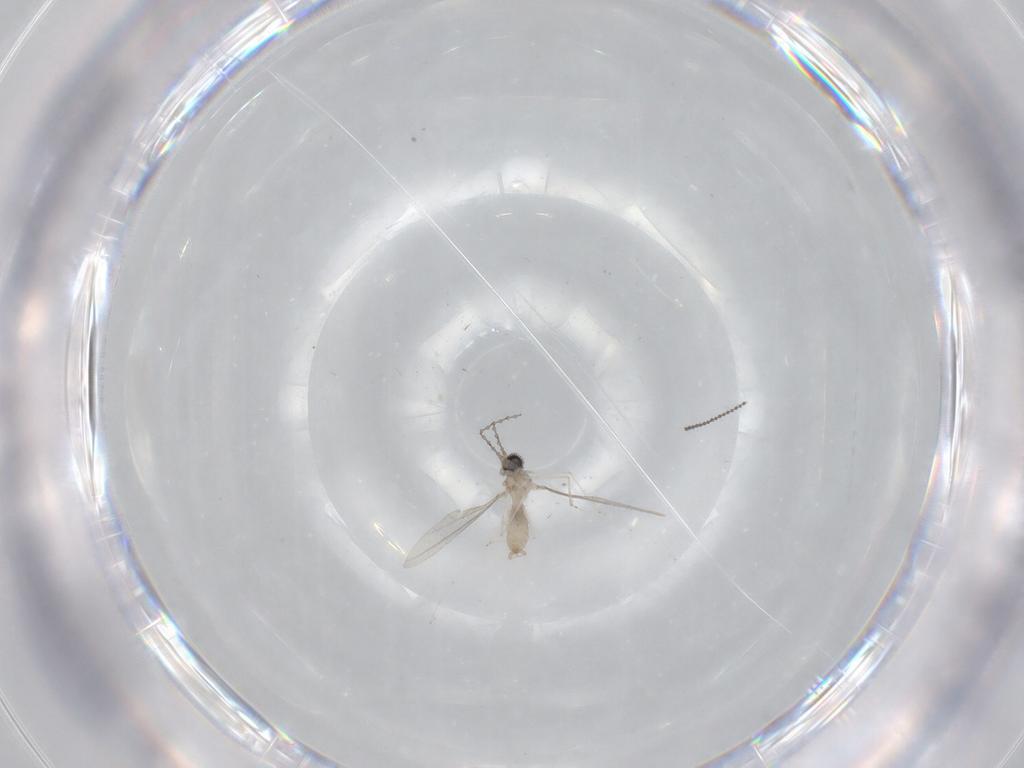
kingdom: Animalia
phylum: Arthropoda
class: Insecta
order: Diptera
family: Cecidomyiidae
